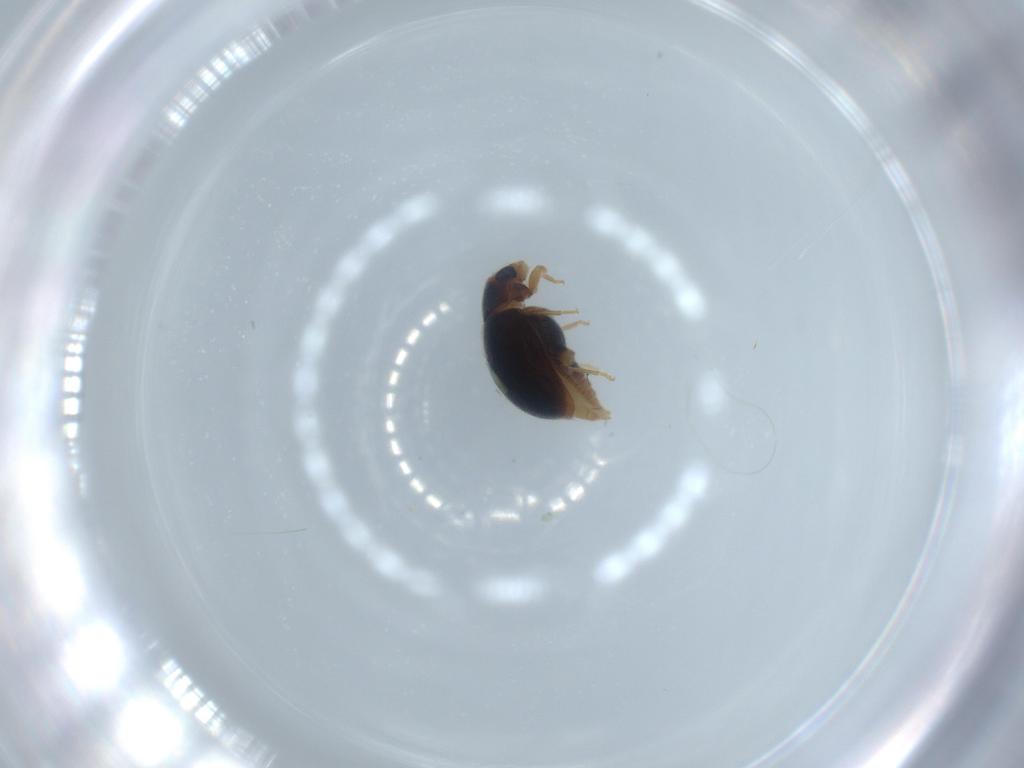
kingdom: Animalia
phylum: Arthropoda
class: Insecta
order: Coleoptera
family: Coccinellidae
